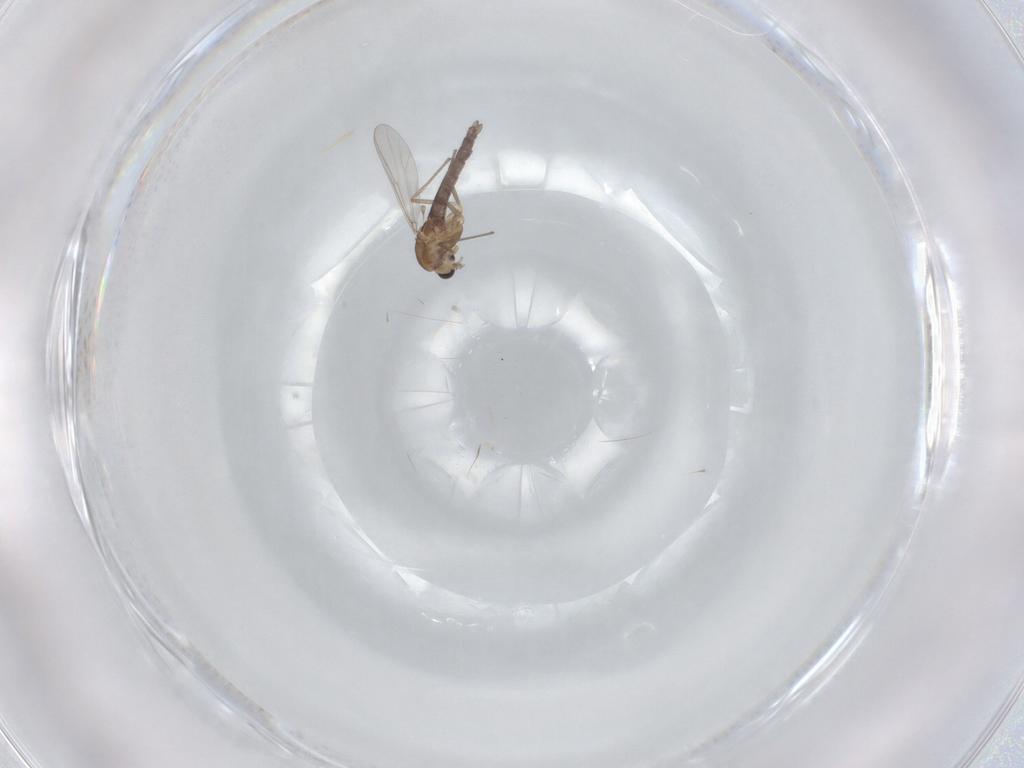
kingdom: Animalia
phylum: Arthropoda
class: Insecta
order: Diptera
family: Chironomidae
